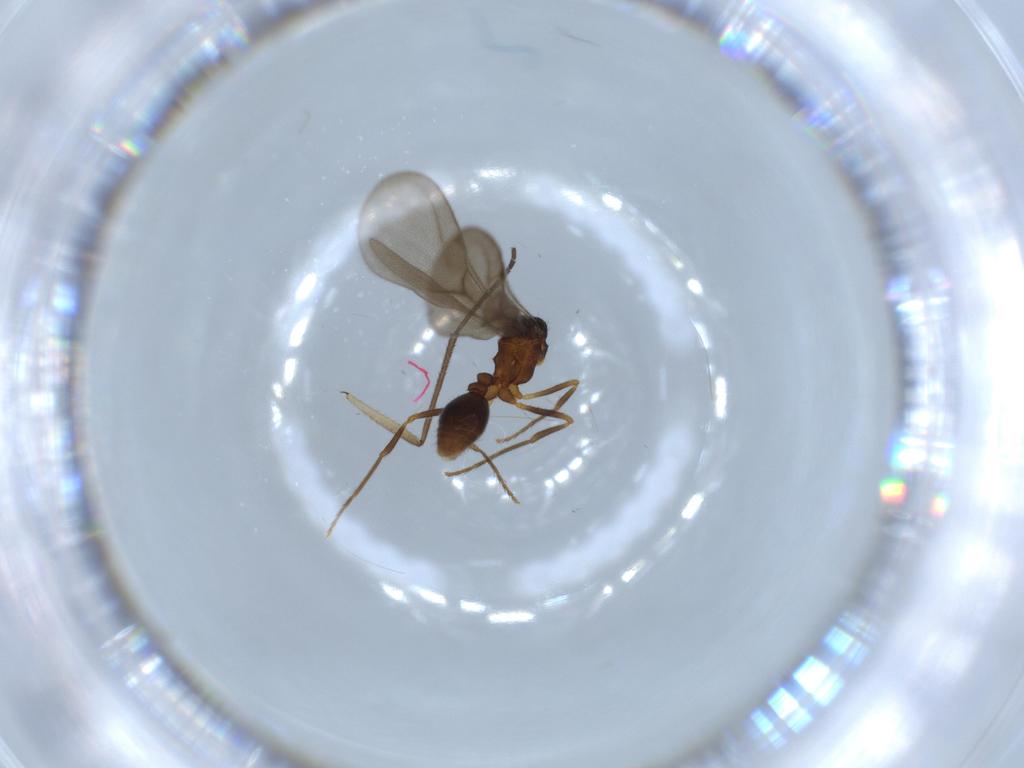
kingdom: Animalia
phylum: Arthropoda
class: Insecta
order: Hymenoptera
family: Formicidae
